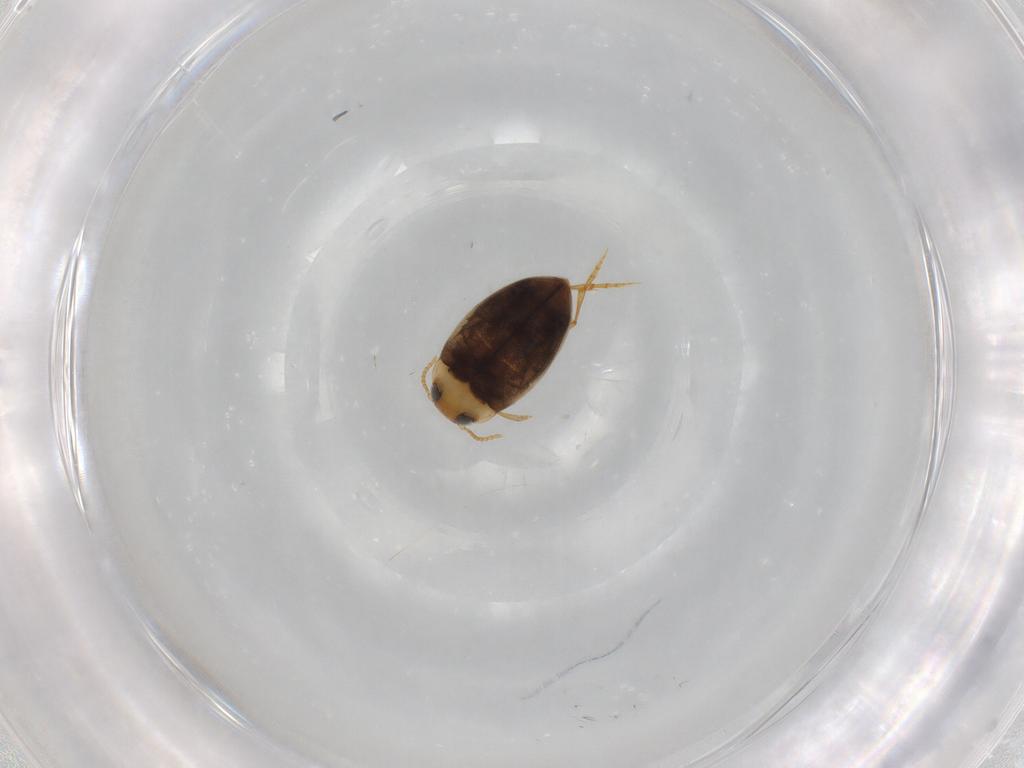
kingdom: Animalia
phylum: Arthropoda
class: Insecta
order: Coleoptera
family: Dytiscidae
